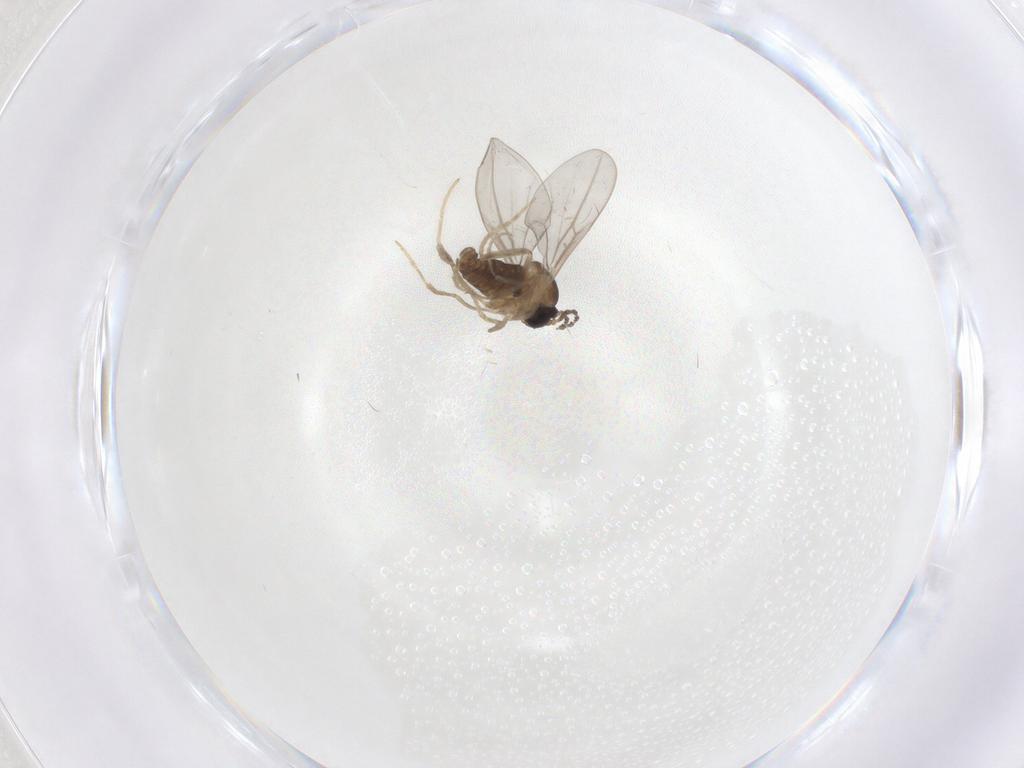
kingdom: Animalia
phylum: Arthropoda
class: Insecta
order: Diptera
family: Cecidomyiidae
